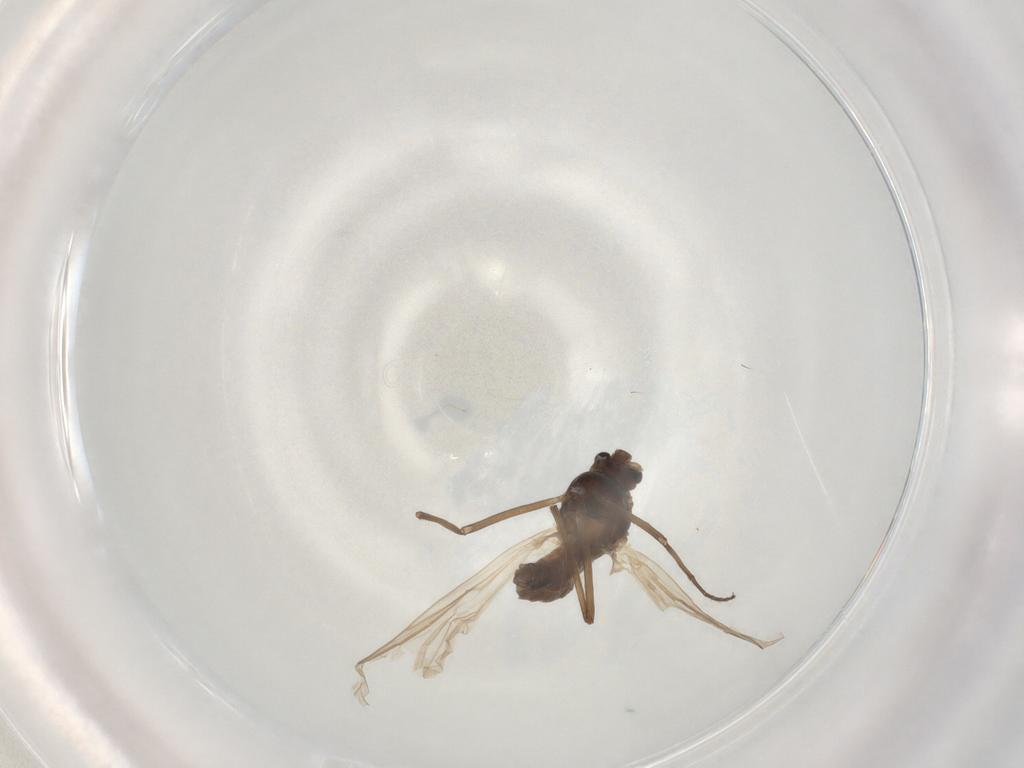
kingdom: Animalia
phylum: Arthropoda
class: Insecta
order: Diptera
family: Chironomidae
